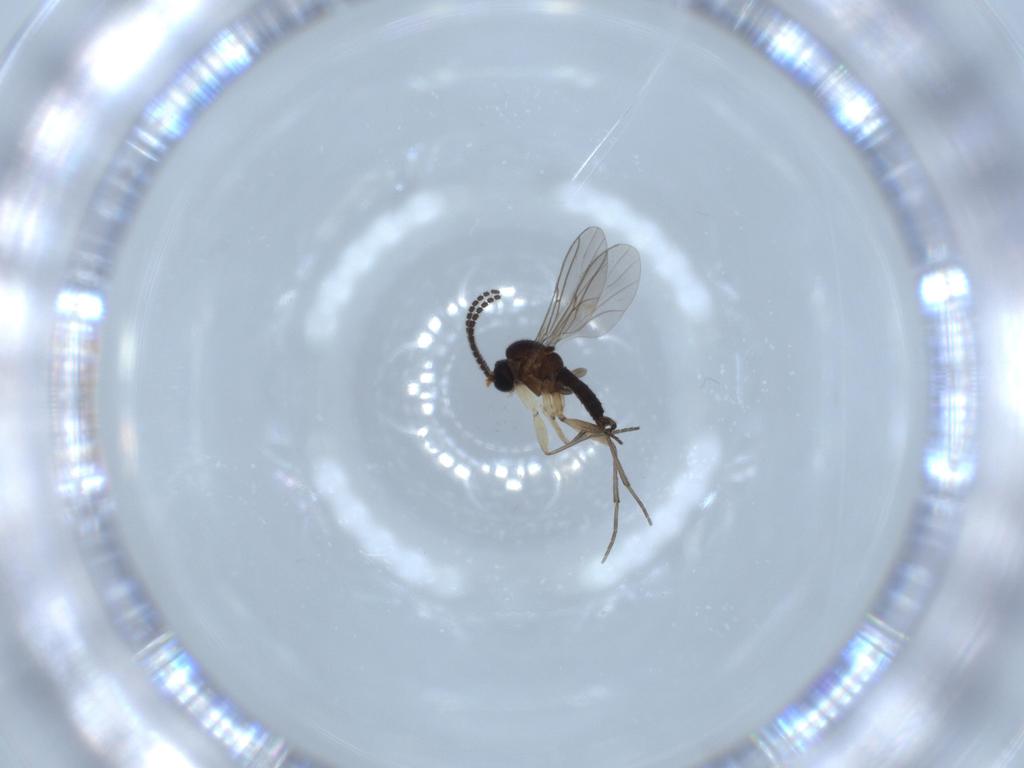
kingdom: Animalia
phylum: Arthropoda
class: Insecta
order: Diptera
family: Sciaridae
